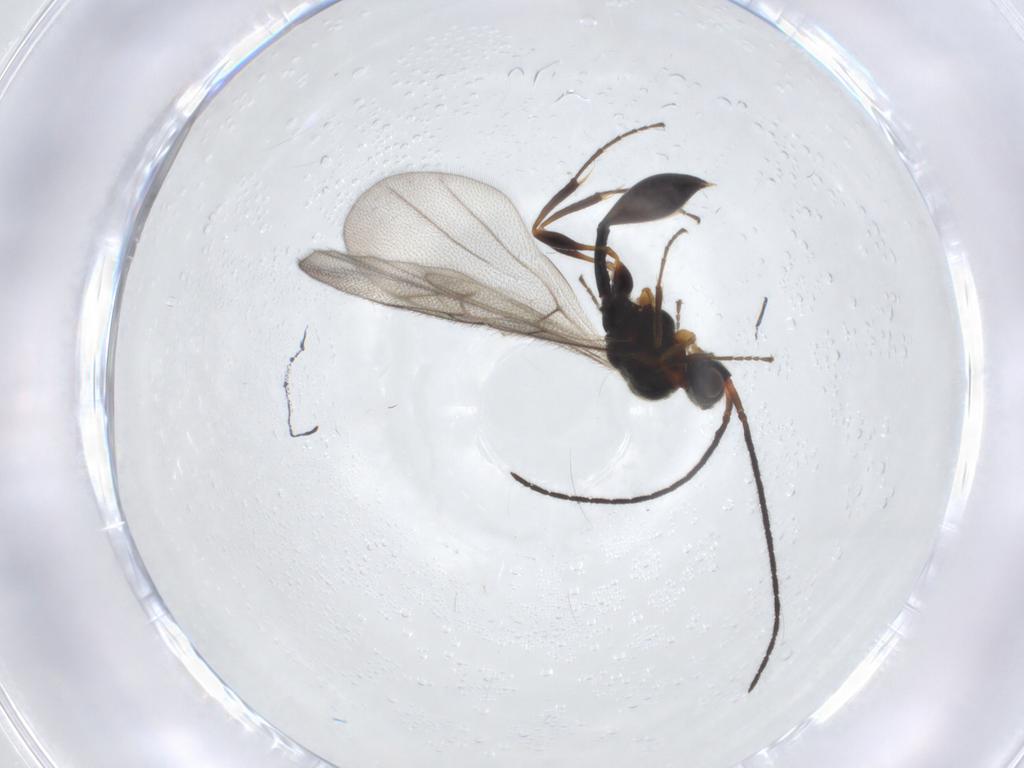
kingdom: Animalia
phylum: Arthropoda
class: Insecta
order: Hymenoptera
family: Diapriidae
